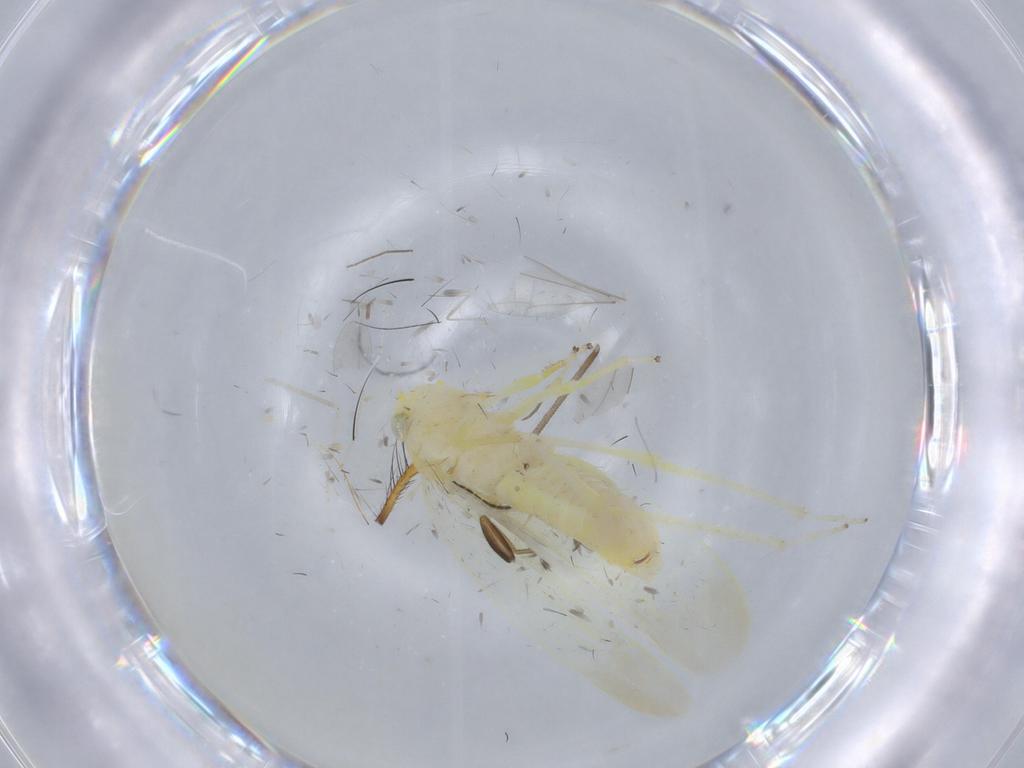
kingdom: Animalia
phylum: Arthropoda
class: Insecta
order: Hemiptera
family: Cicadellidae
